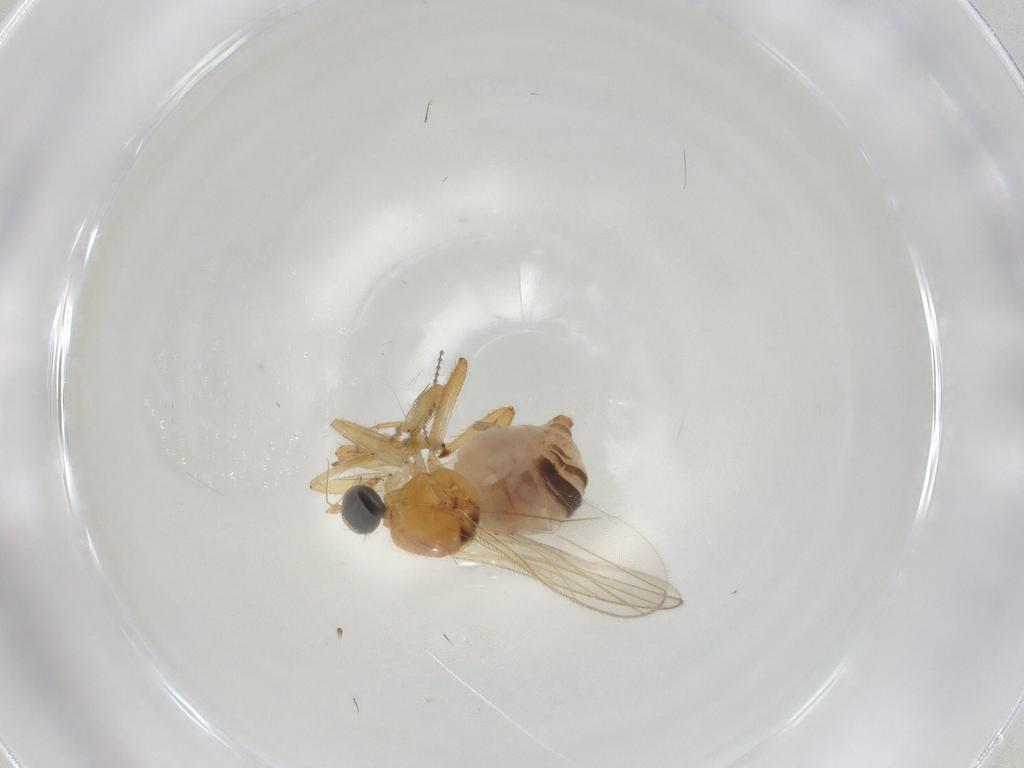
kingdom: Animalia
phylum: Arthropoda
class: Insecta
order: Diptera
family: Hybotidae
